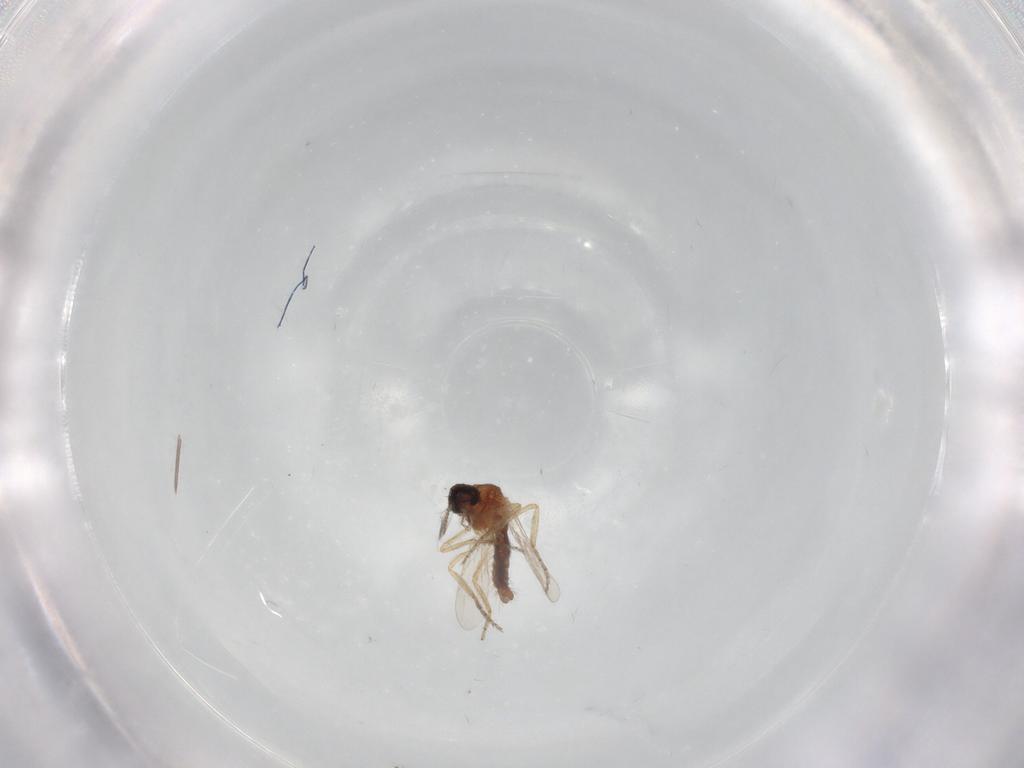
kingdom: Animalia
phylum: Arthropoda
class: Insecta
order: Diptera
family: Ceratopogonidae
